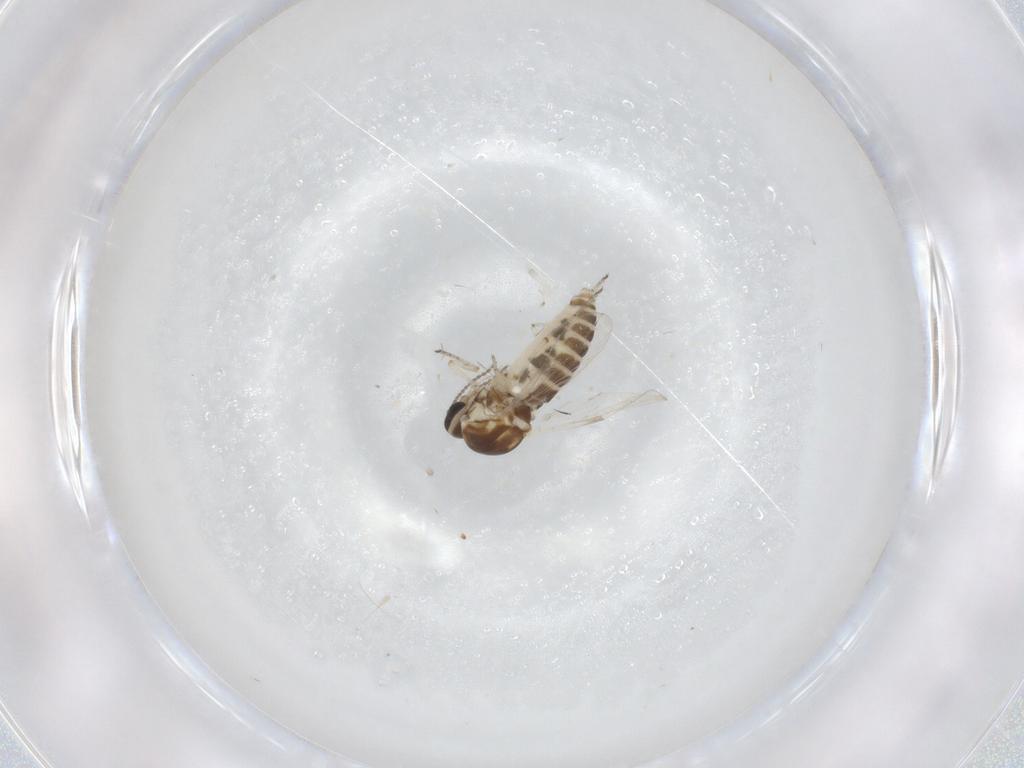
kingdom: Animalia
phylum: Arthropoda
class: Insecta
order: Diptera
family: Ceratopogonidae
